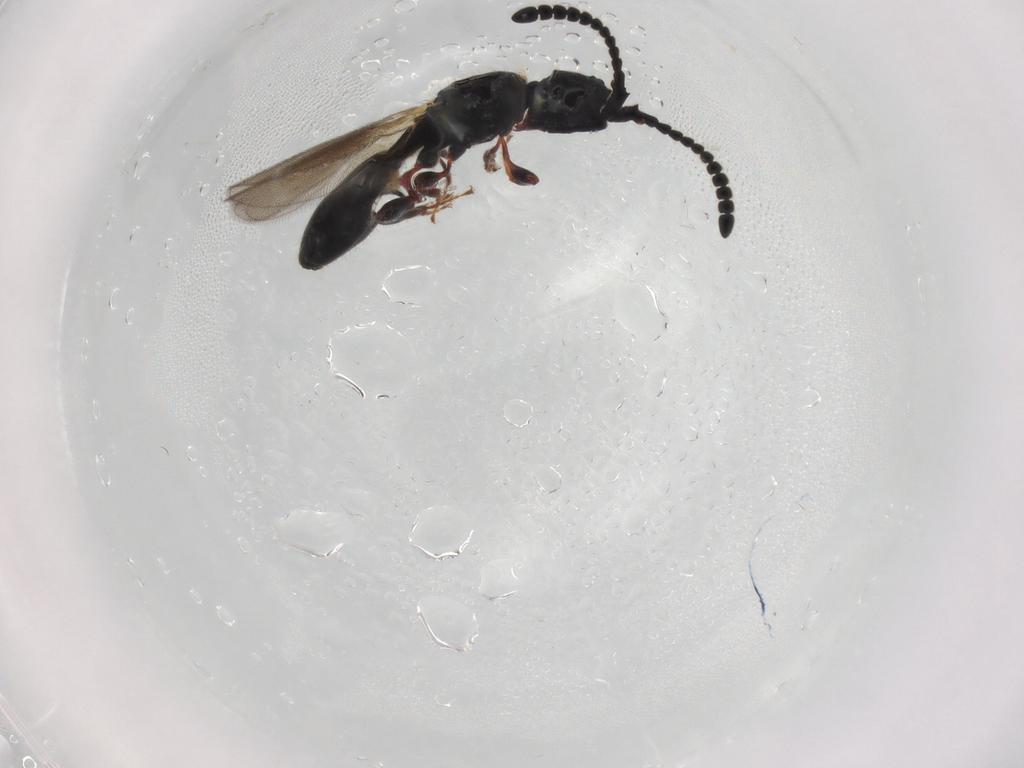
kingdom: Animalia
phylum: Arthropoda
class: Insecta
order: Hymenoptera
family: Diapriidae
